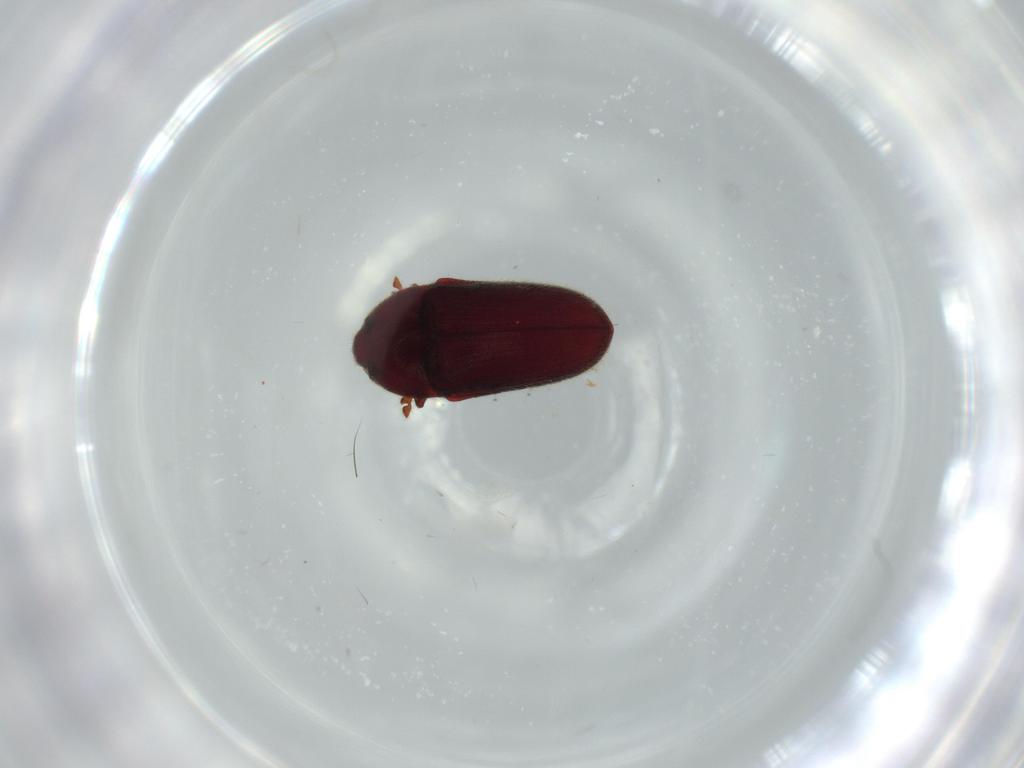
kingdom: Animalia
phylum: Arthropoda
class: Insecta
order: Coleoptera
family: Throscidae
